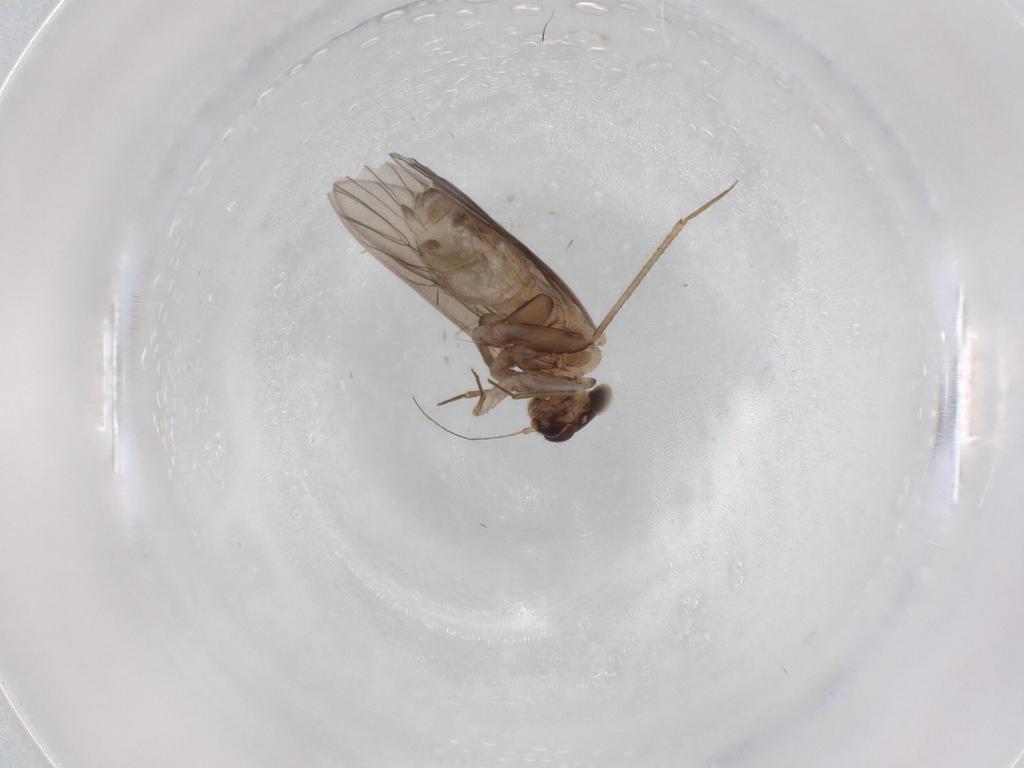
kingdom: Animalia
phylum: Arthropoda
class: Insecta
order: Psocodea
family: Lepidopsocidae
